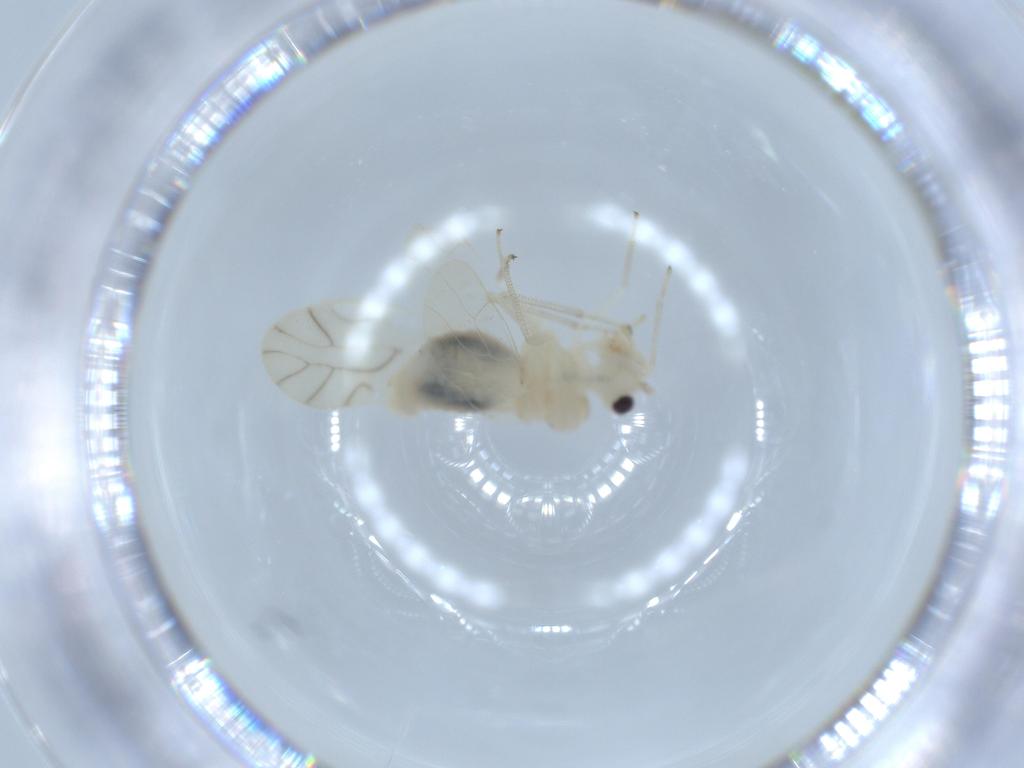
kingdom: Animalia
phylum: Arthropoda
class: Insecta
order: Psocodea
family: Caeciliusidae
